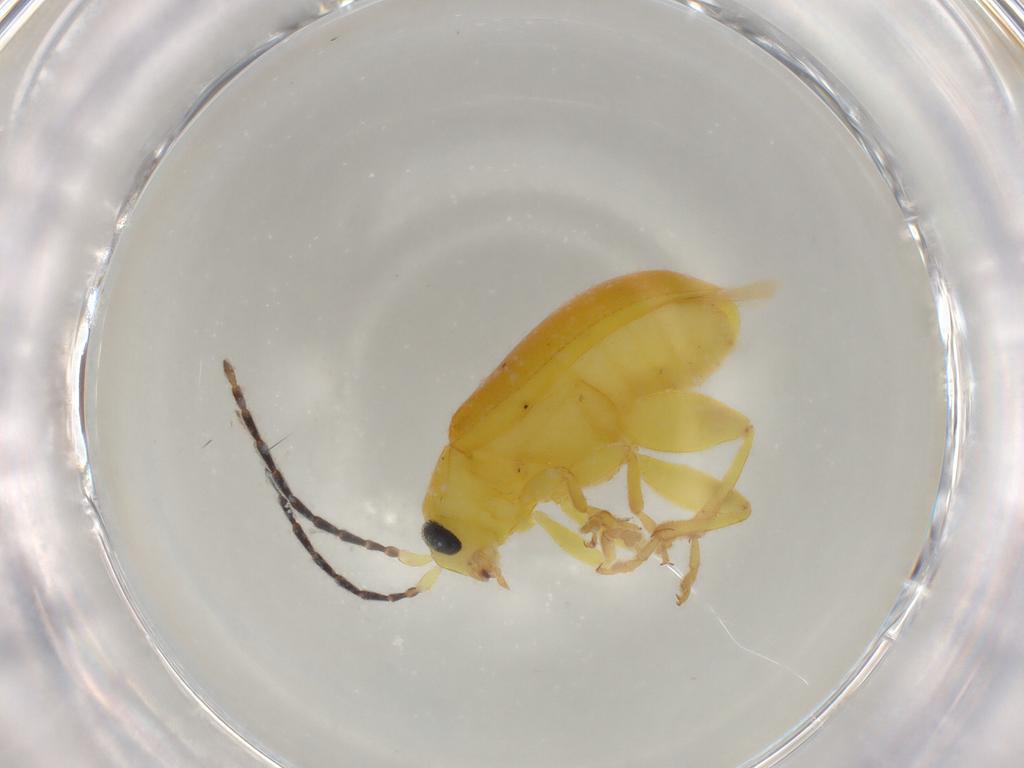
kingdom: Animalia
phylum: Arthropoda
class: Insecta
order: Coleoptera
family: Chrysomelidae
